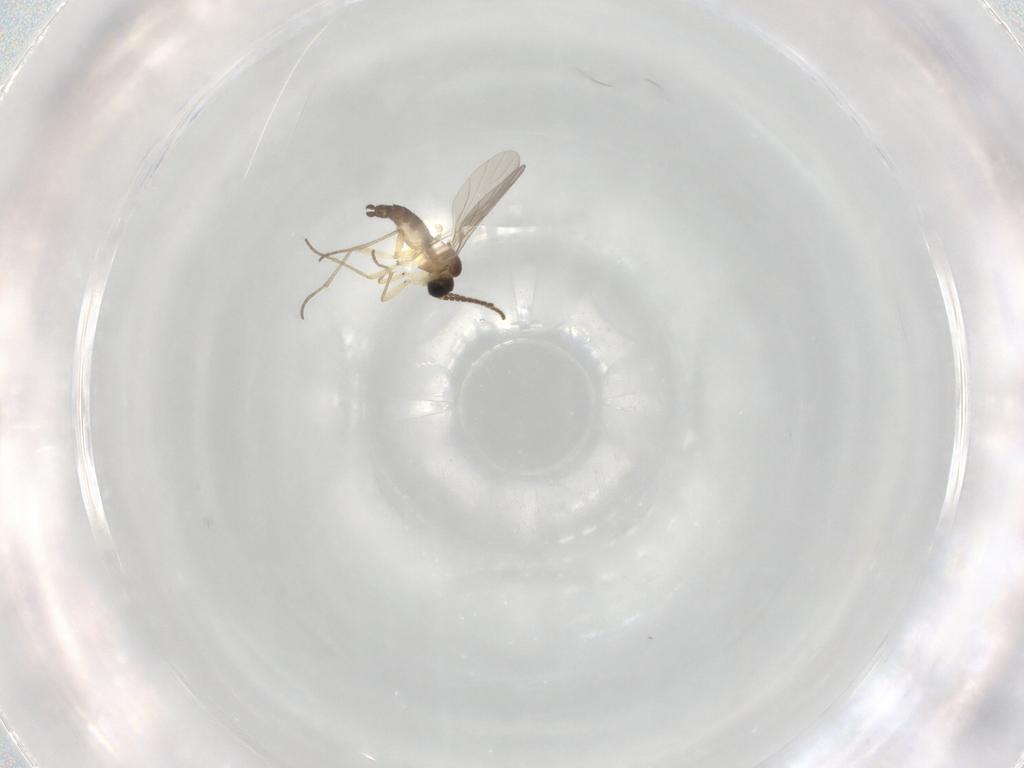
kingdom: Animalia
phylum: Arthropoda
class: Insecta
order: Diptera
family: Sciaridae
